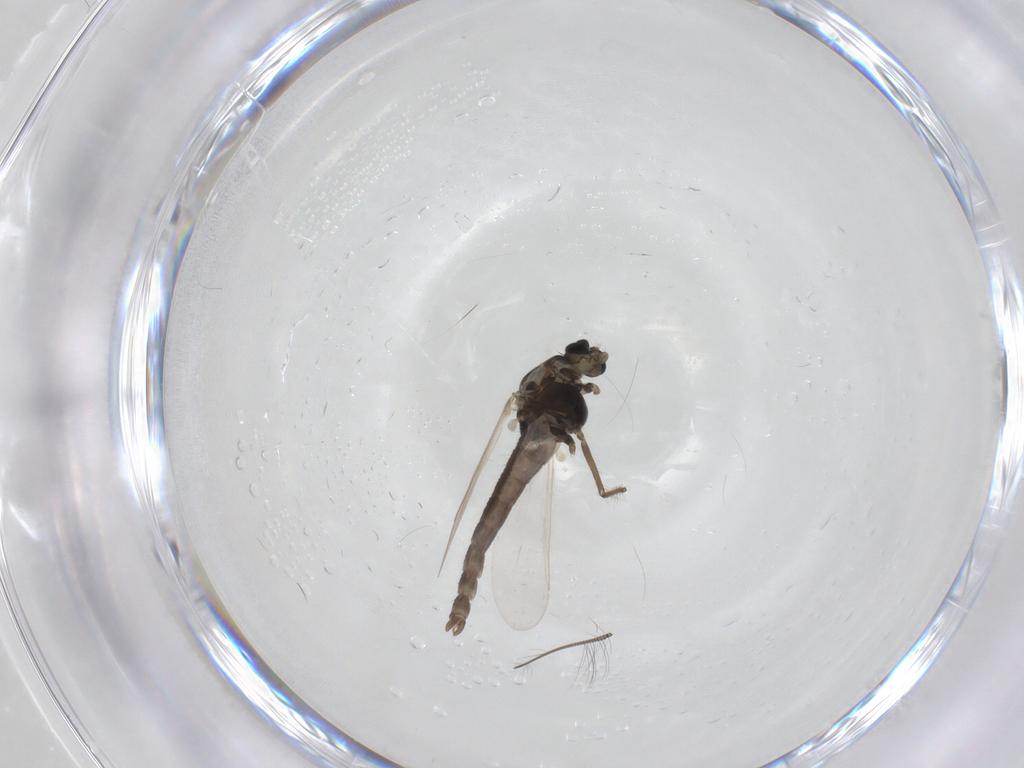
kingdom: Animalia
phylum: Arthropoda
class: Insecta
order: Diptera
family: Chironomidae
